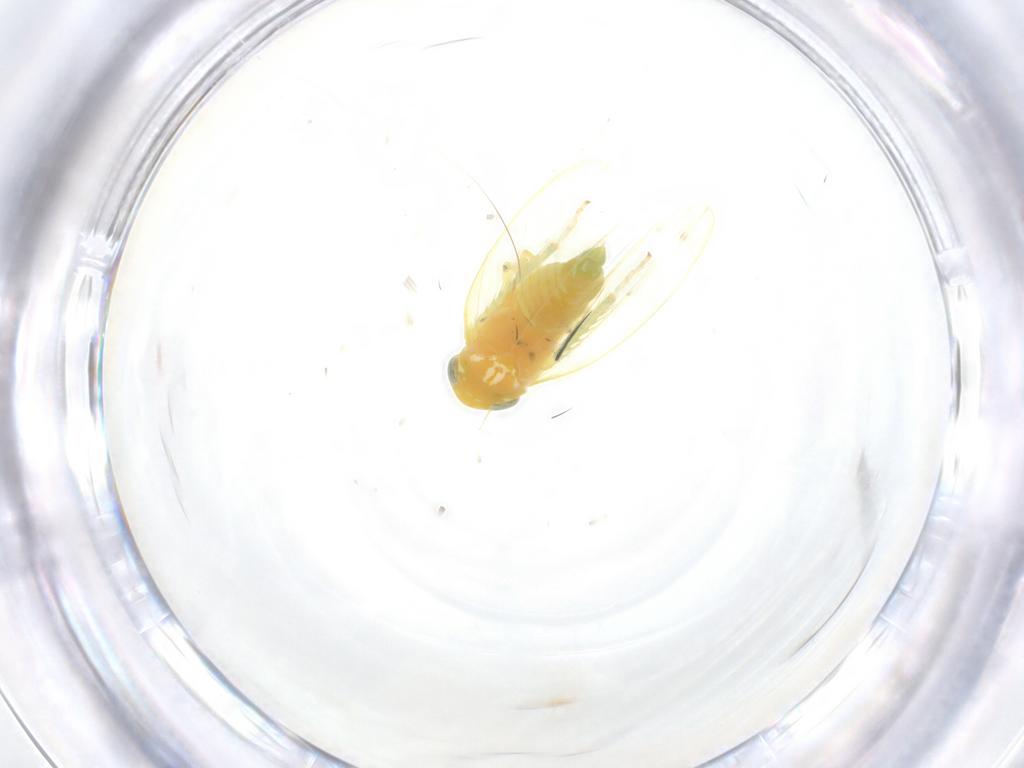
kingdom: Animalia
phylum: Arthropoda
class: Insecta
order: Hemiptera
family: Cicadellidae
